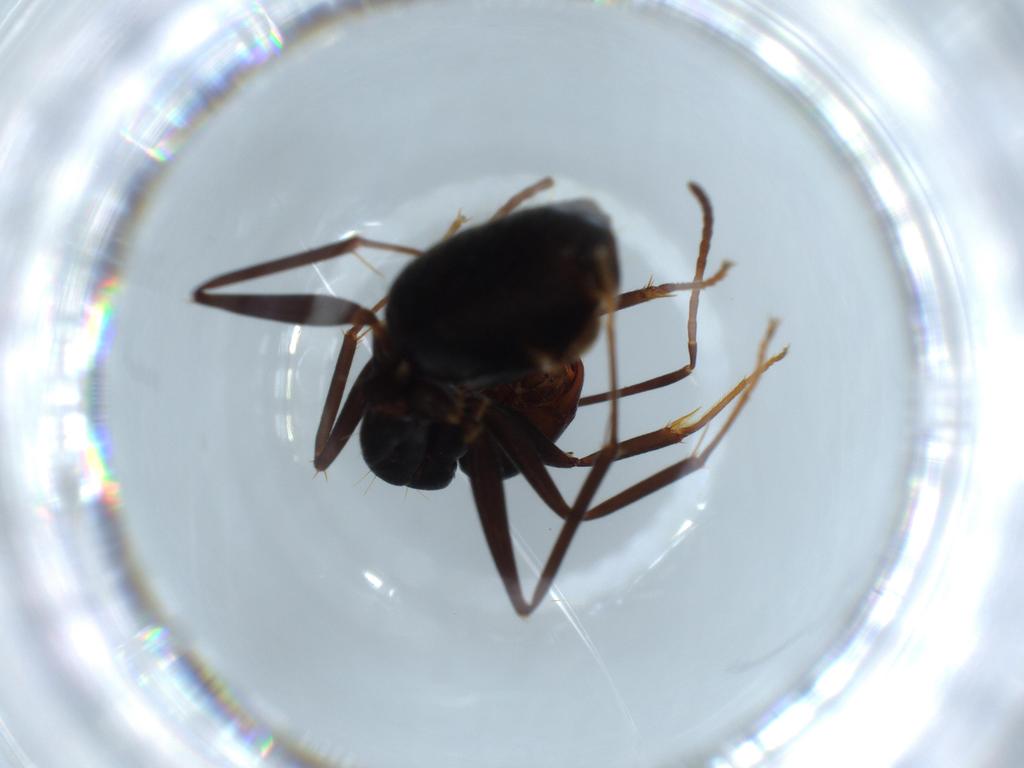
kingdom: Animalia
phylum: Arthropoda
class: Insecta
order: Hymenoptera
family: Formicidae
